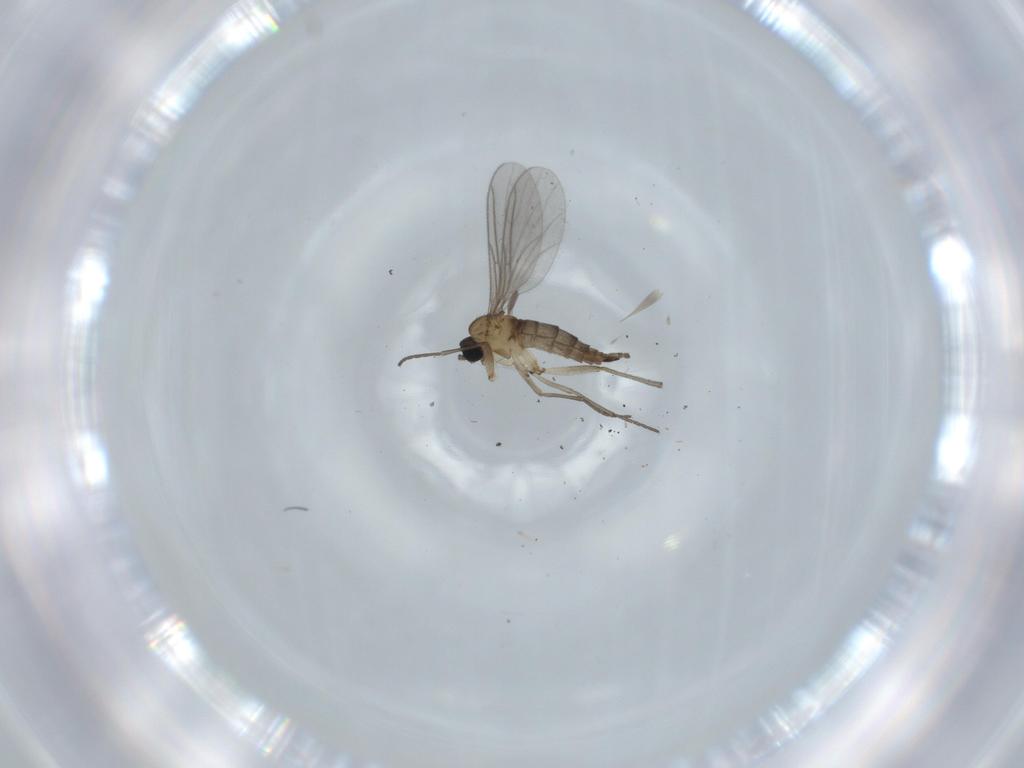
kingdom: Animalia
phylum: Arthropoda
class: Insecta
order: Diptera
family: Sciaridae
